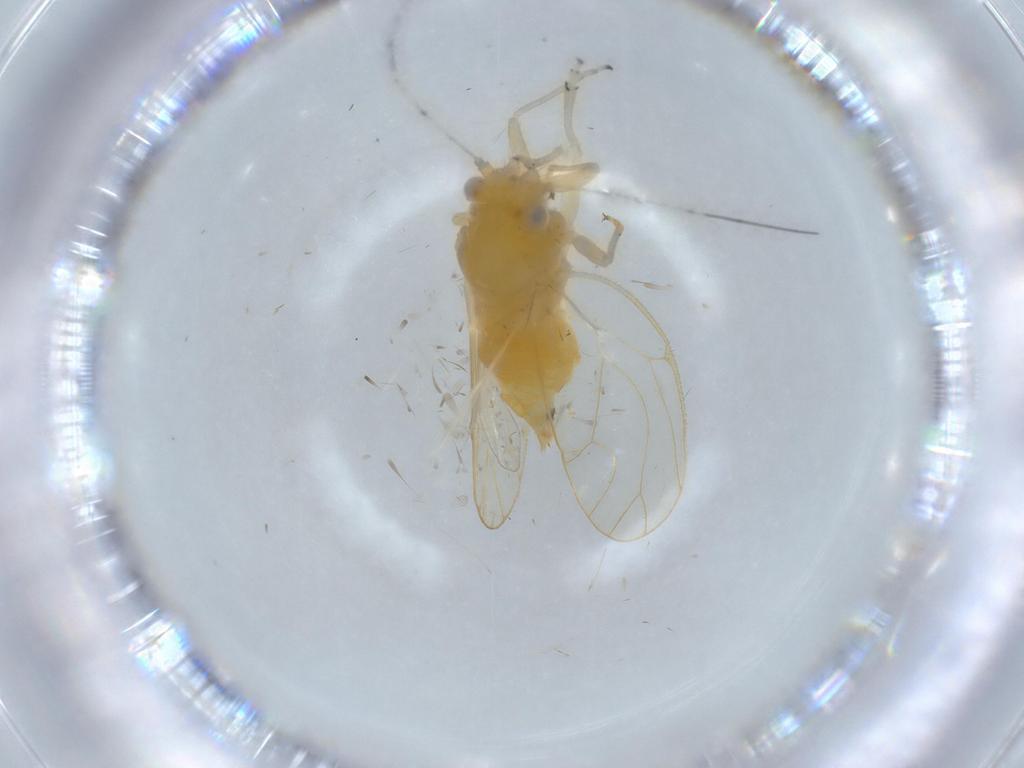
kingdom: Animalia
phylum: Arthropoda
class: Insecta
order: Hemiptera
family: Psyllidae
